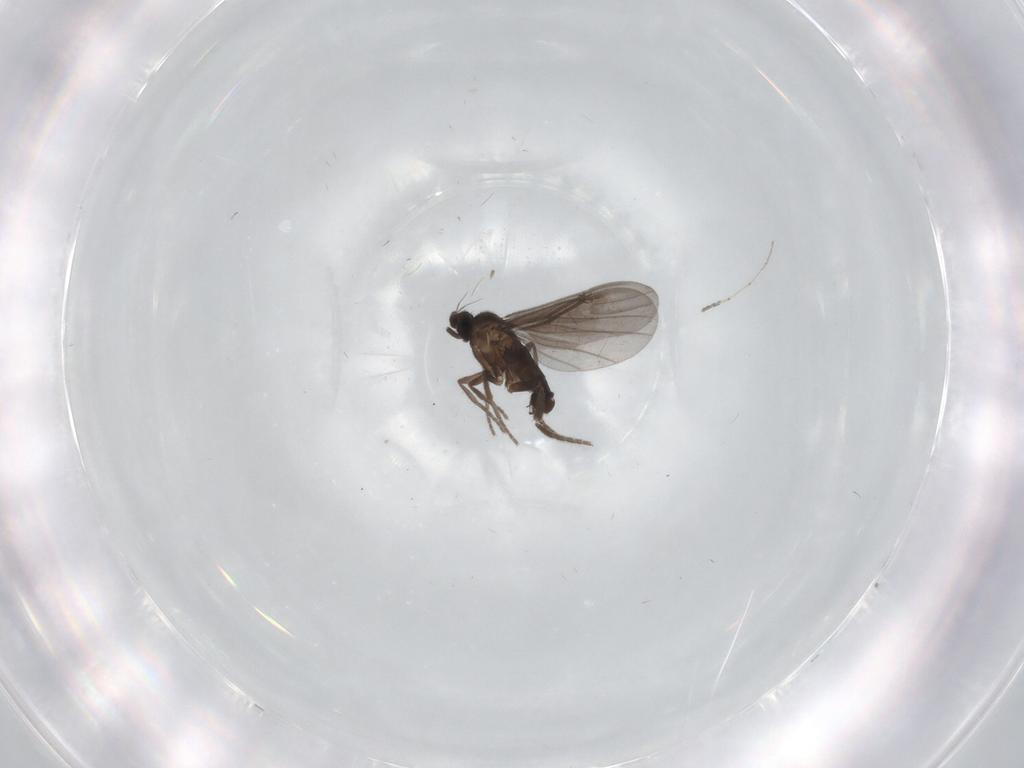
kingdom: Animalia
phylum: Arthropoda
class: Insecta
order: Diptera
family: Phoridae
